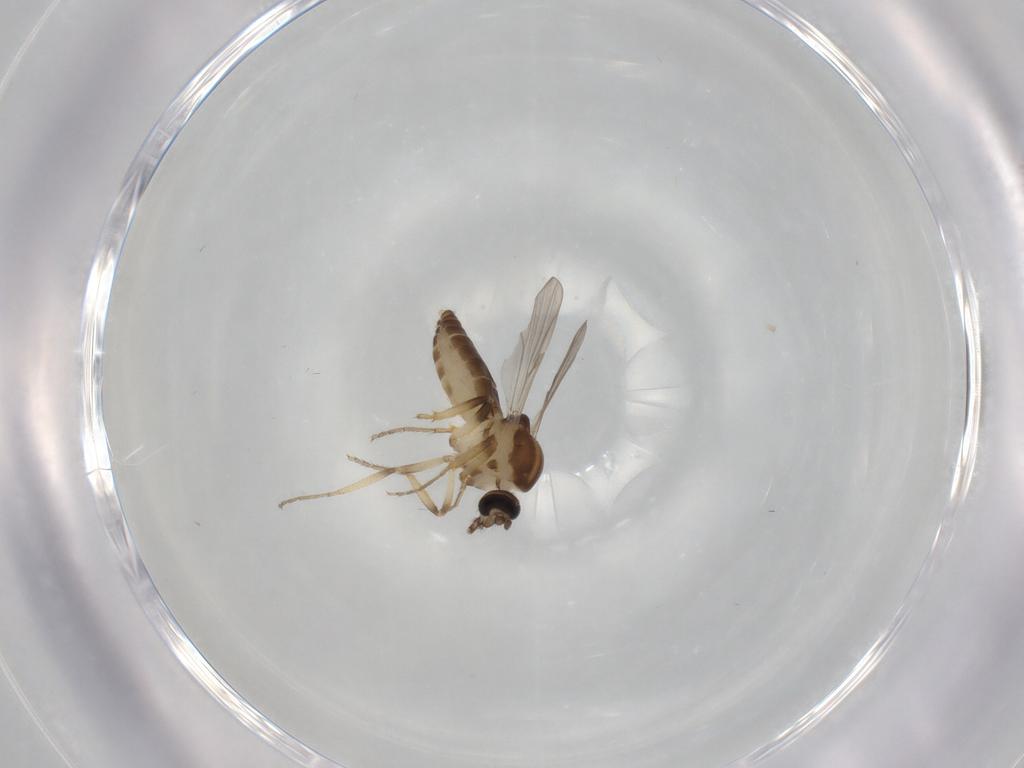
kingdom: Animalia
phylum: Arthropoda
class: Insecta
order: Diptera
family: Ceratopogonidae
